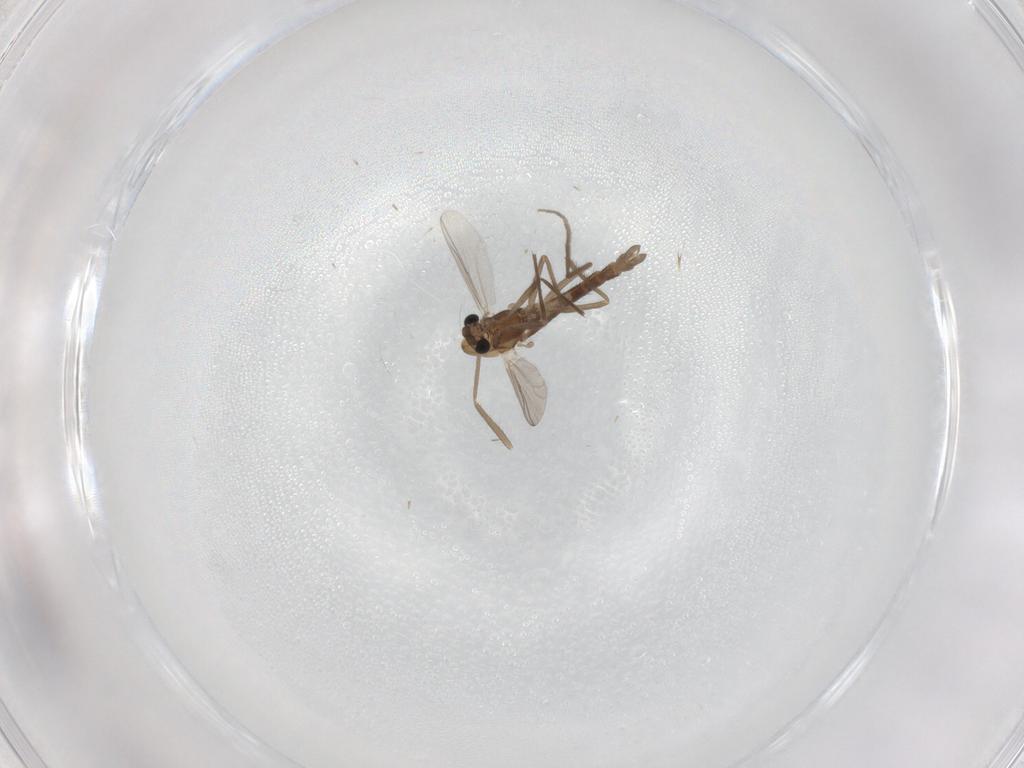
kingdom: Animalia
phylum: Arthropoda
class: Insecta
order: Diptera
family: Chironomidae
